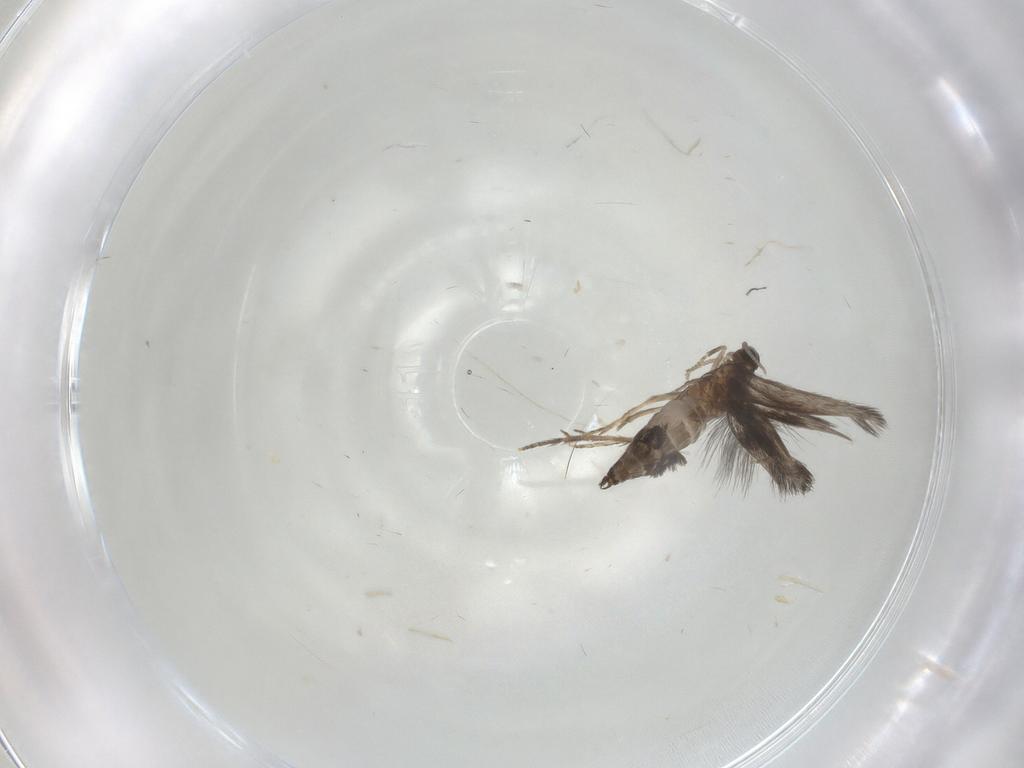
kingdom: Animalia
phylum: Arthropoda
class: Insecta
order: Trichoptera
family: Hydroptilidae
